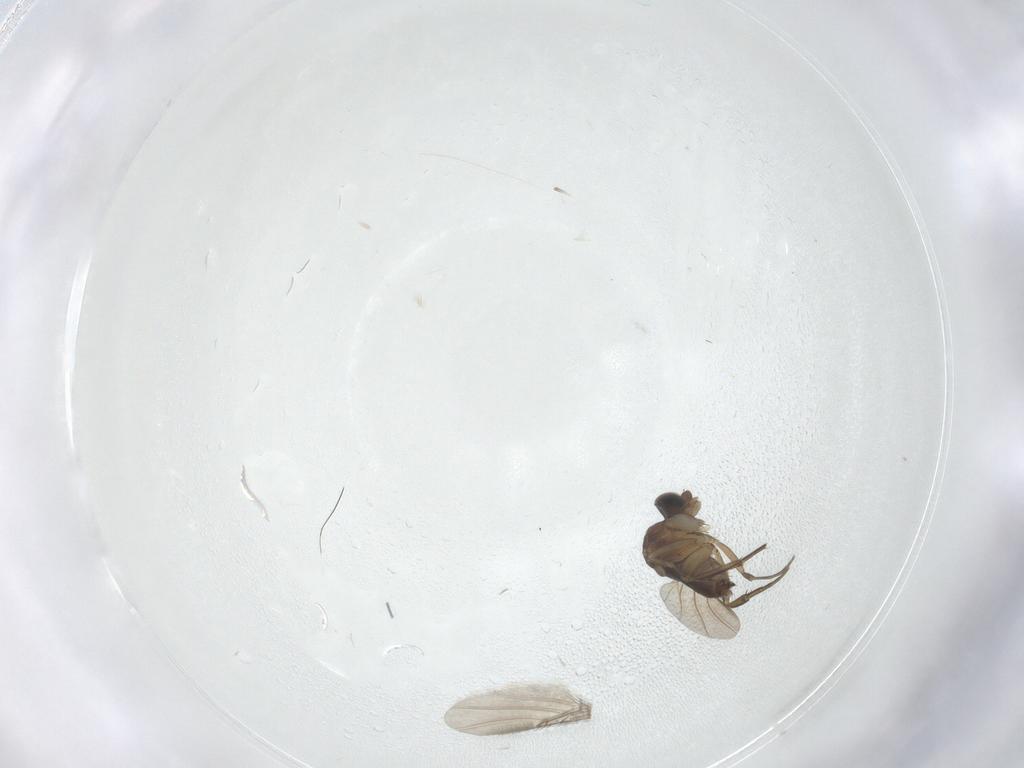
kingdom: Animalia
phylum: Arthropoda
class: Insecta
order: Diptera
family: Phoridae
